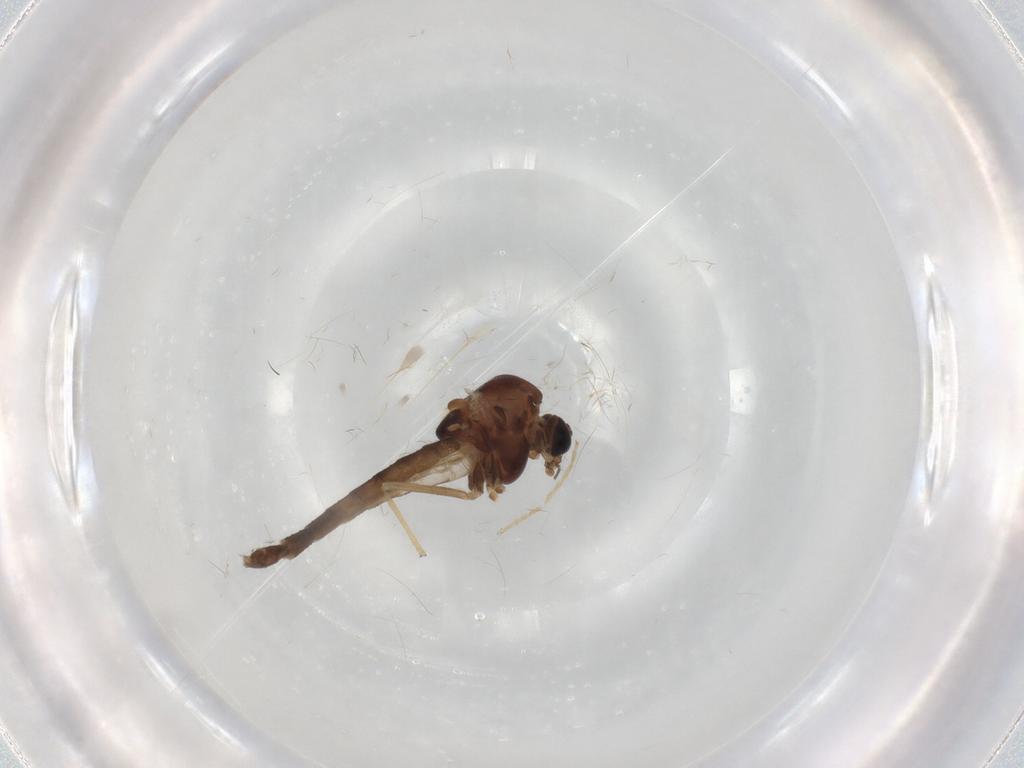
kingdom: Animalia
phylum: Arthropoda
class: Insecta
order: Diptera
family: Chironomidae
